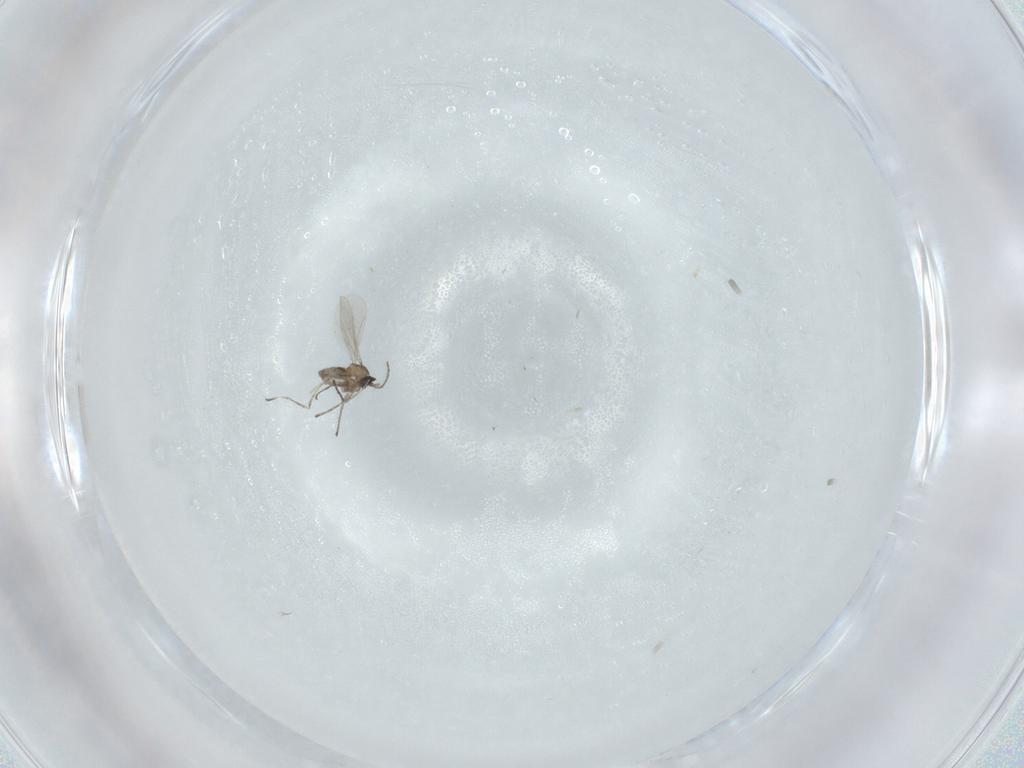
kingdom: Animalia
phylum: Arthropoda
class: Insecta
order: Diptera
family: Cecidomyiidae
